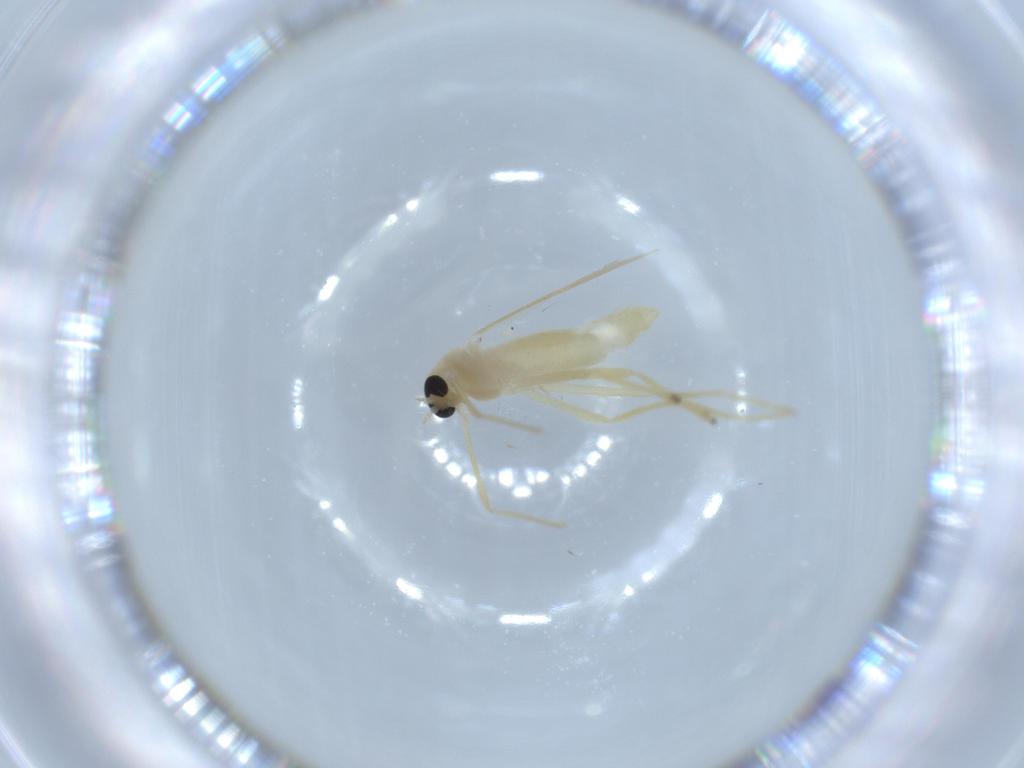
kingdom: Animalia
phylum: Arthropoda
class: Insecta
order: Diptera
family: Chironomidae
